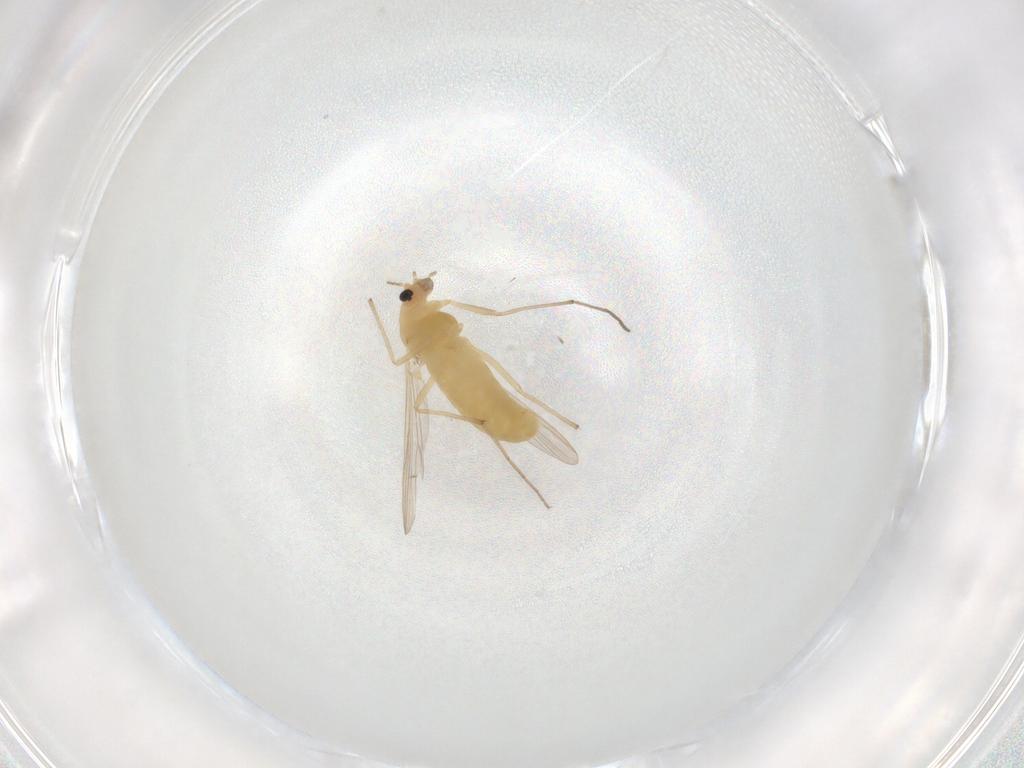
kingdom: Animalia
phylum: Arthropoda
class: Insecta
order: Diptera
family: Chironomidae
